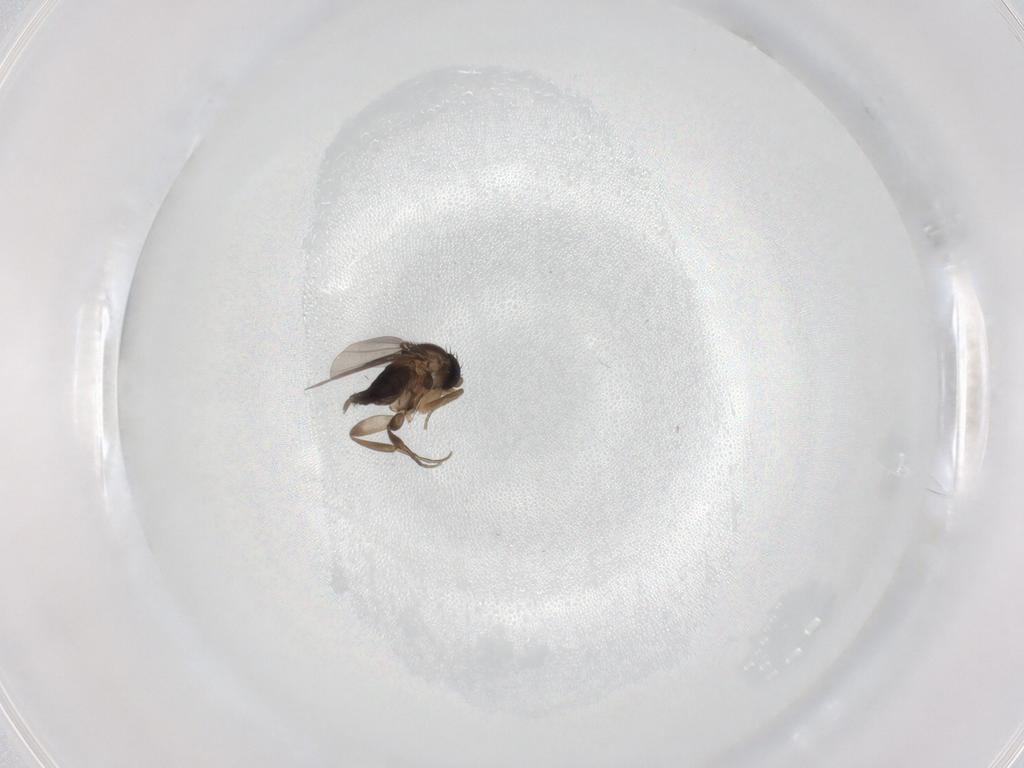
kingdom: Animalia
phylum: Arthropoda
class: Insecta
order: Diptera
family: Phoridae
